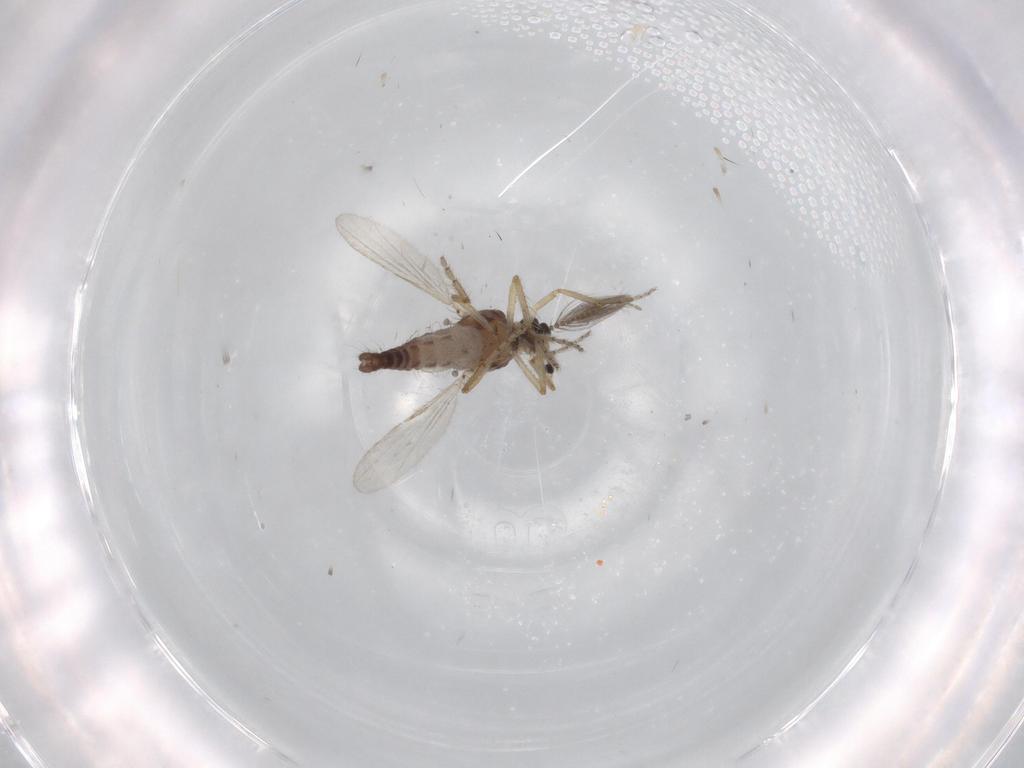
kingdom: Animalia
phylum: Arthropoda
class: Insecta
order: Diptera
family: Ceratopogonidae
